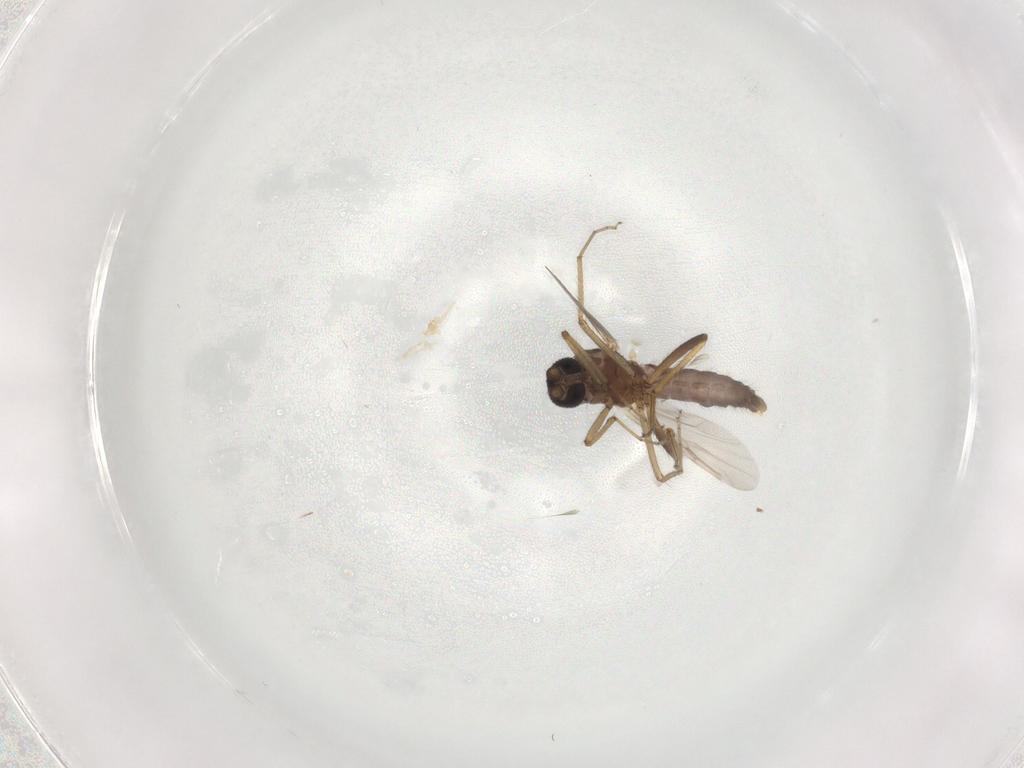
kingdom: Animalia
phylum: Arthropoda
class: Insecta
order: Diptera
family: Ceratopogonidae
